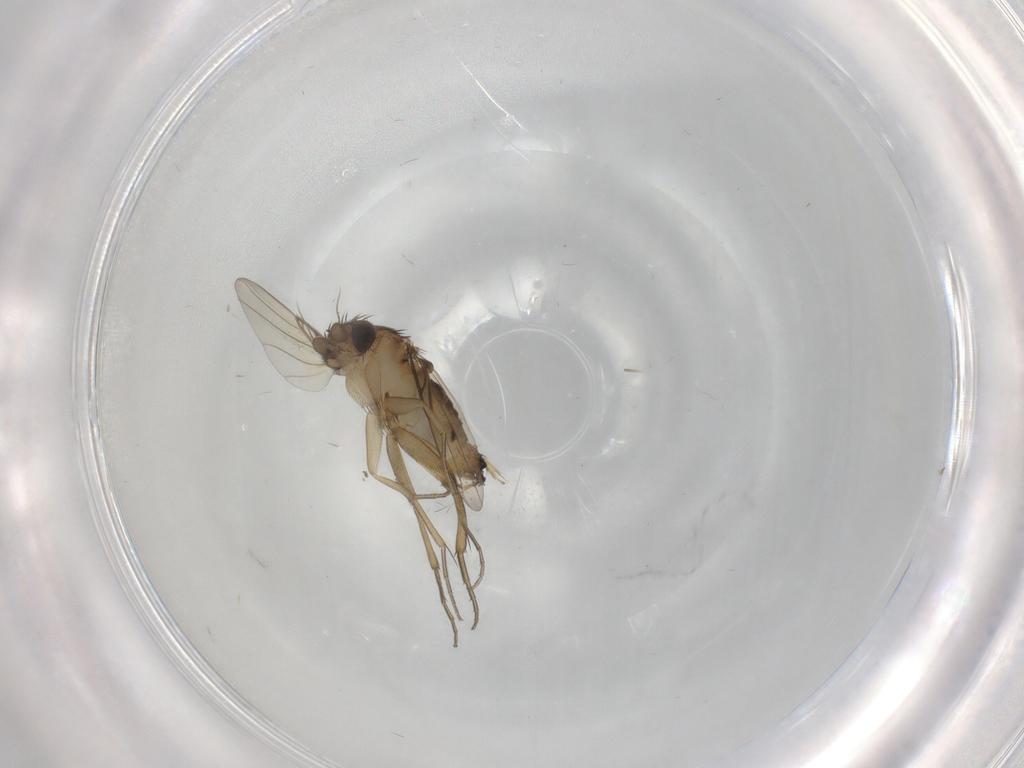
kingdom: Animalia
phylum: Arthropoda
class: Insecta
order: Diptera
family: Phoridae
